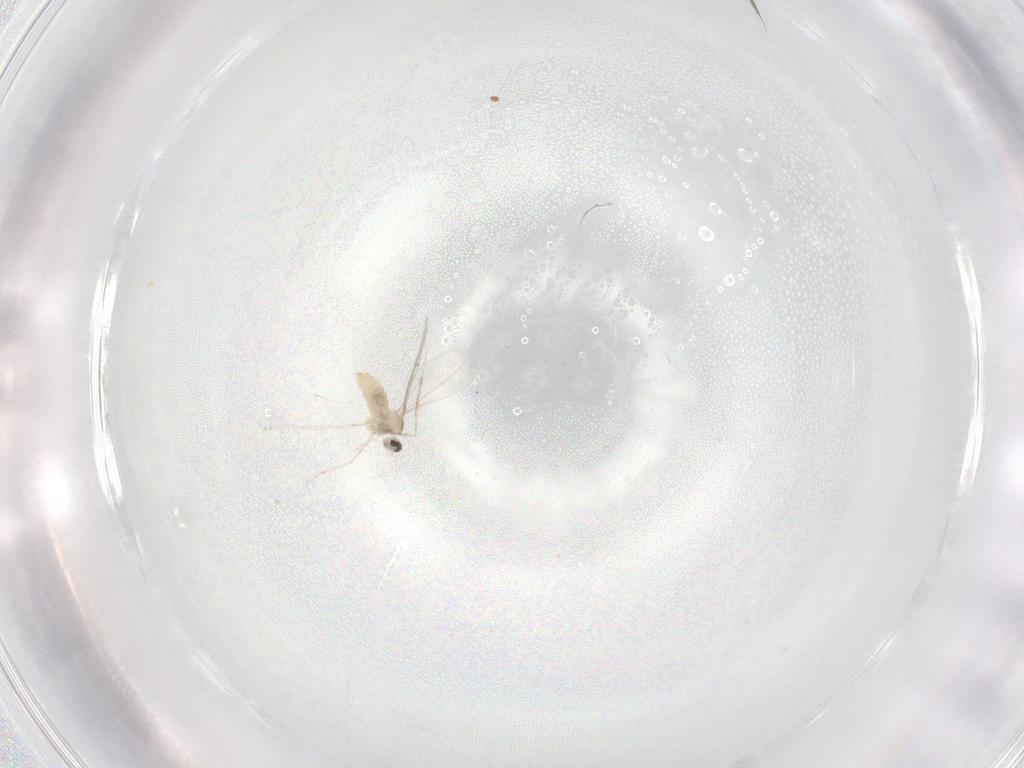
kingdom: Animalia
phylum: Arthropoda
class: Insecta
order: Diptera
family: Cecidomyiidae
